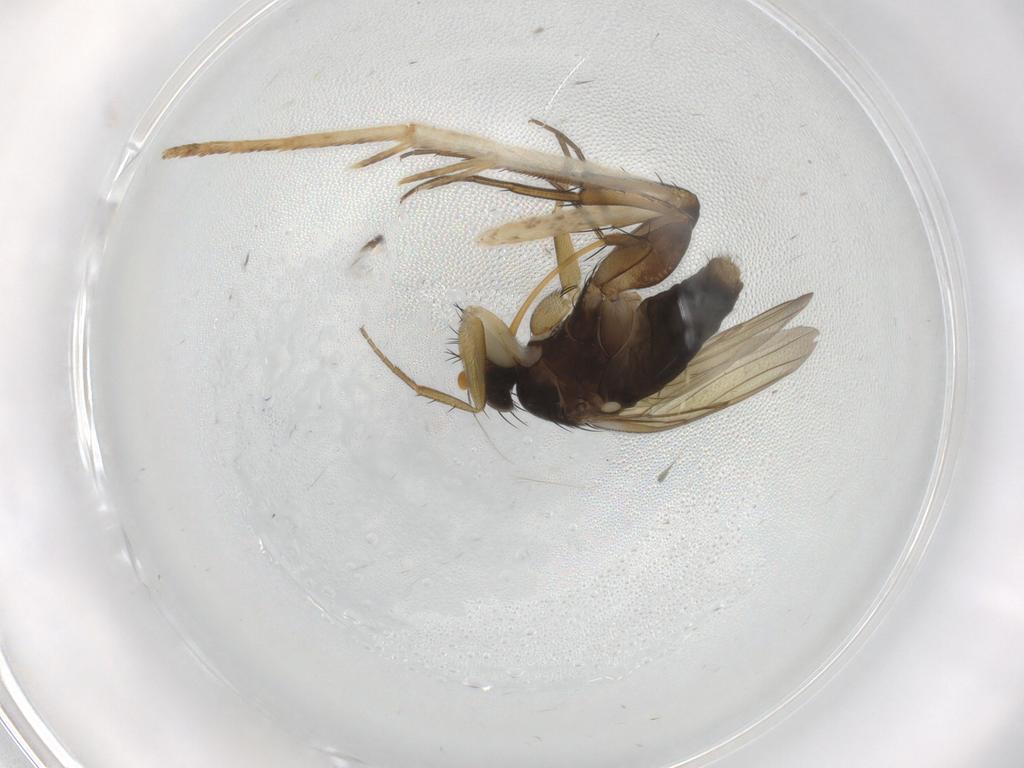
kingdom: Animalia
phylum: Arthropoda
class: Insecta
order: Diptera
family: Phoridae
